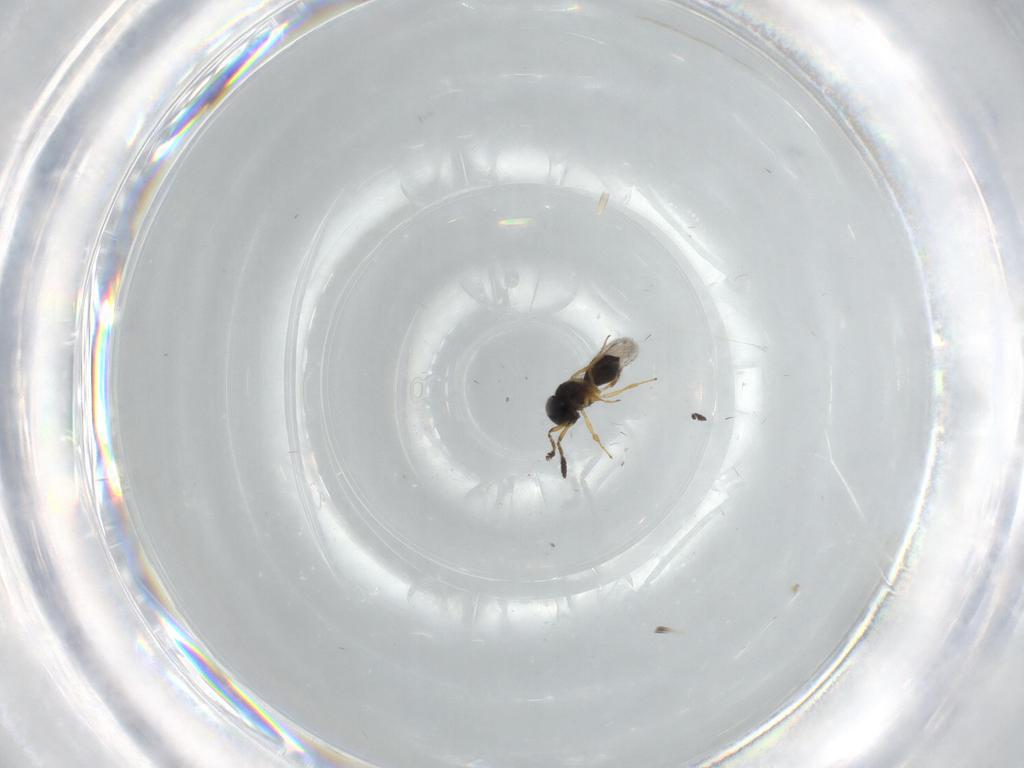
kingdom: Animalia
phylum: Arthropoda
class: Insecta
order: Hymenoptera
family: Scelionidae
